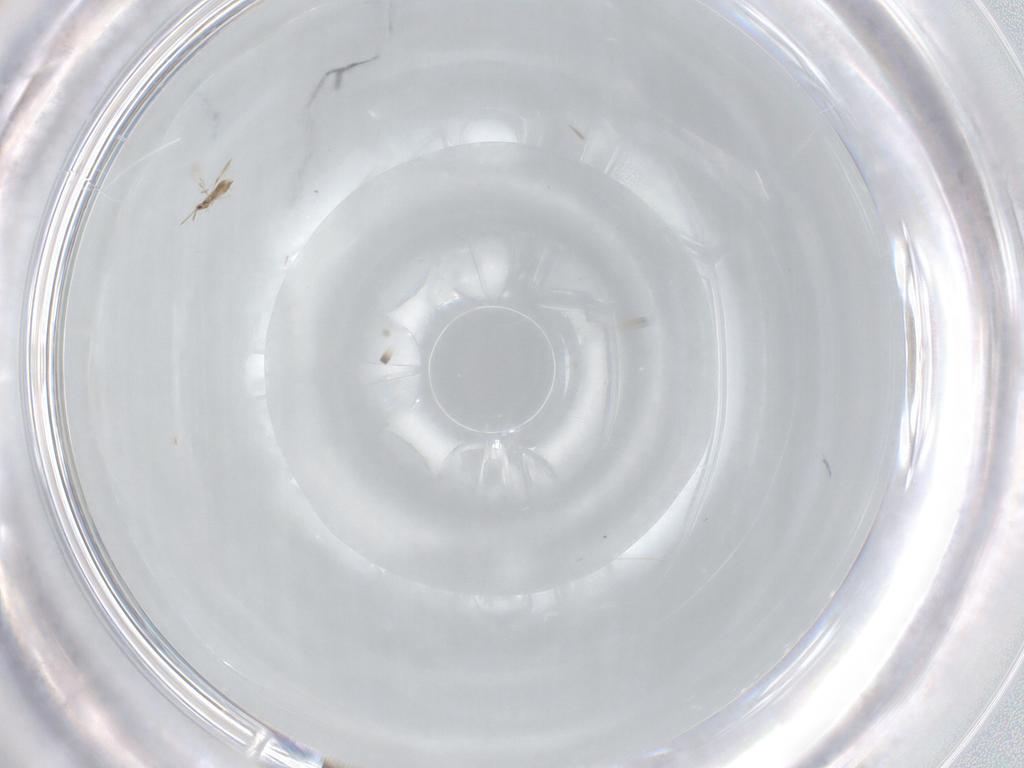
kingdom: Animalia
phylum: Arthropoda
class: Insecta
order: Hymenoptera
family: Aphelinidae
